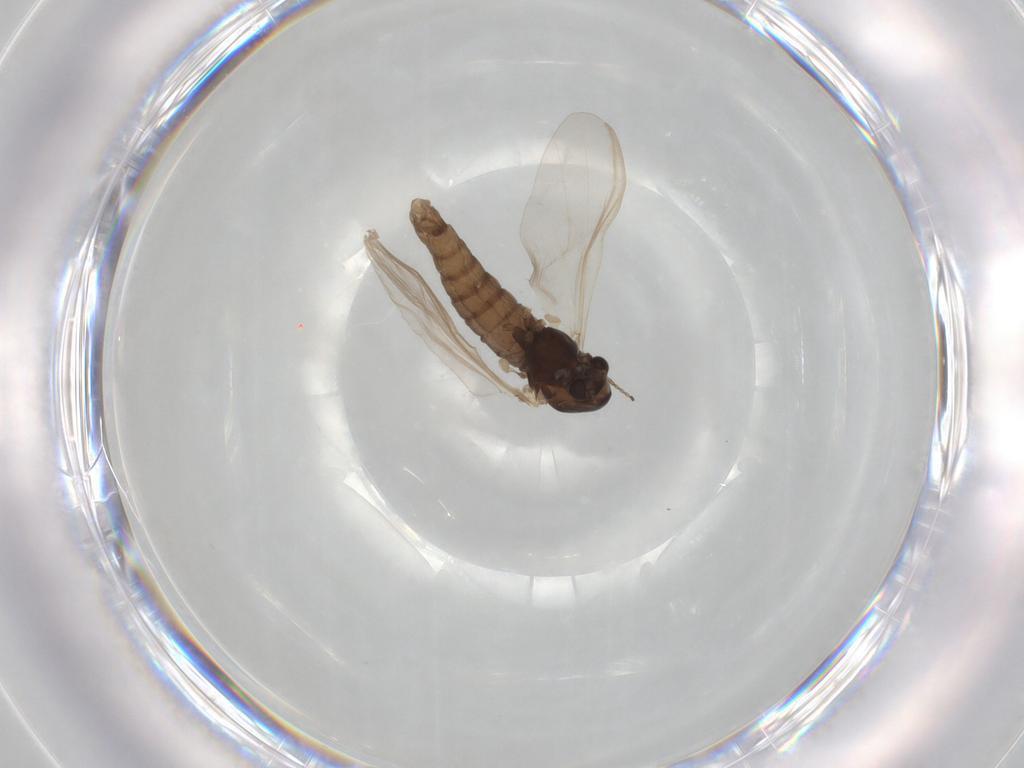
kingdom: Animalia
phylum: Arthropoda
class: Insecta
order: Diptera
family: Chironomidae
